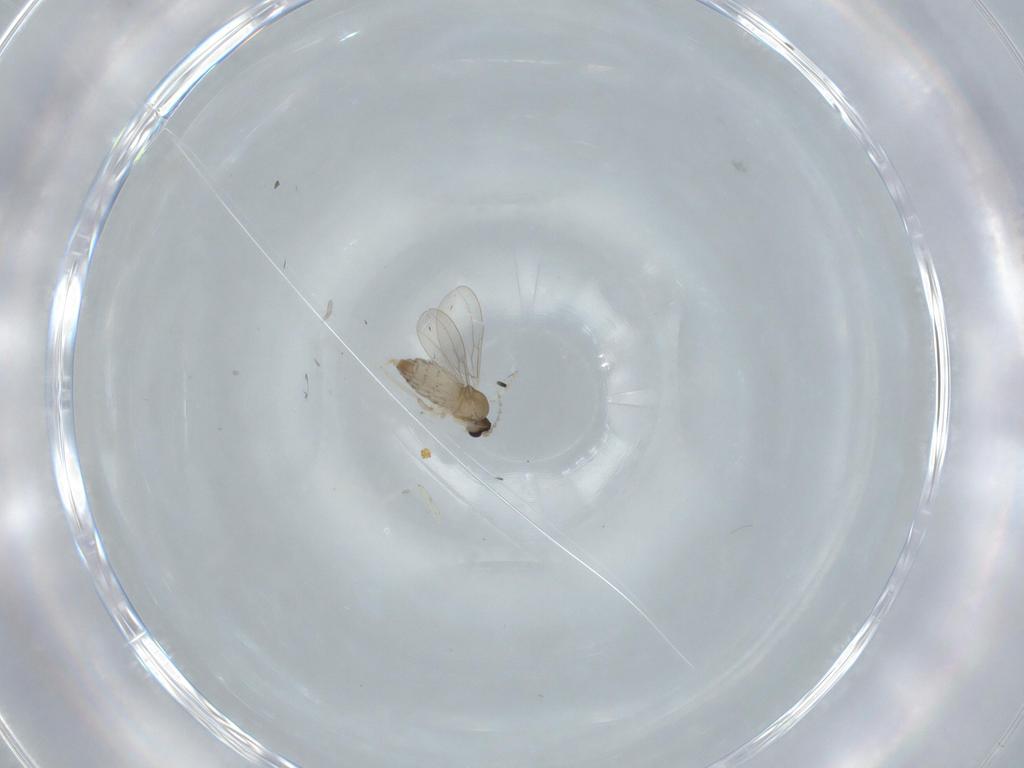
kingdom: Animalia
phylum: Arthropoda
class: Insecta
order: Diptera
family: Cecidomyiidae
